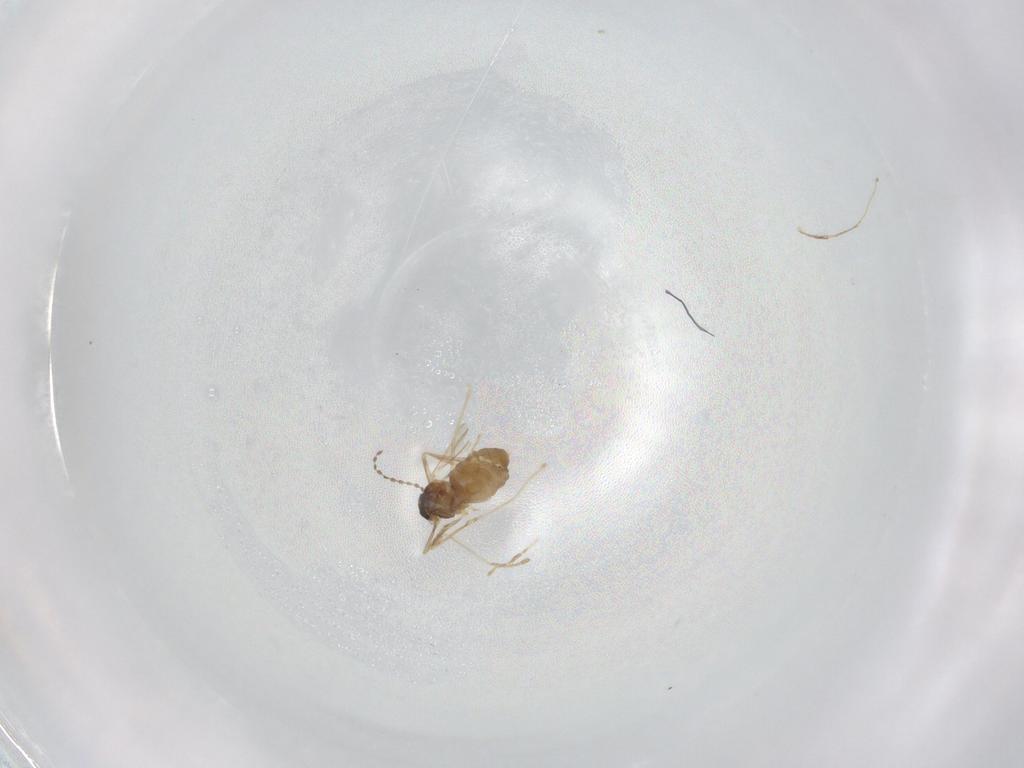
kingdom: Animalia
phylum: Arthropoda
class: Insecta
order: Diptera
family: Cecidomyiidae
